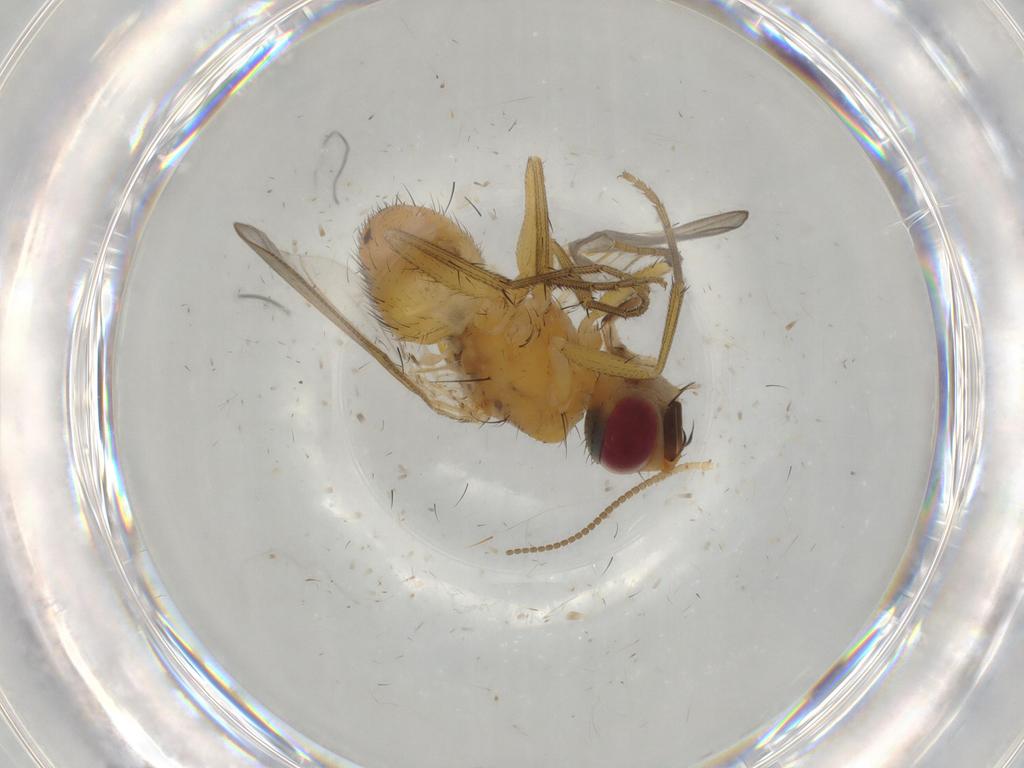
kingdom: Animalia
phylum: Arthropoda
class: Insecta
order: Diptera
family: Muscidae
